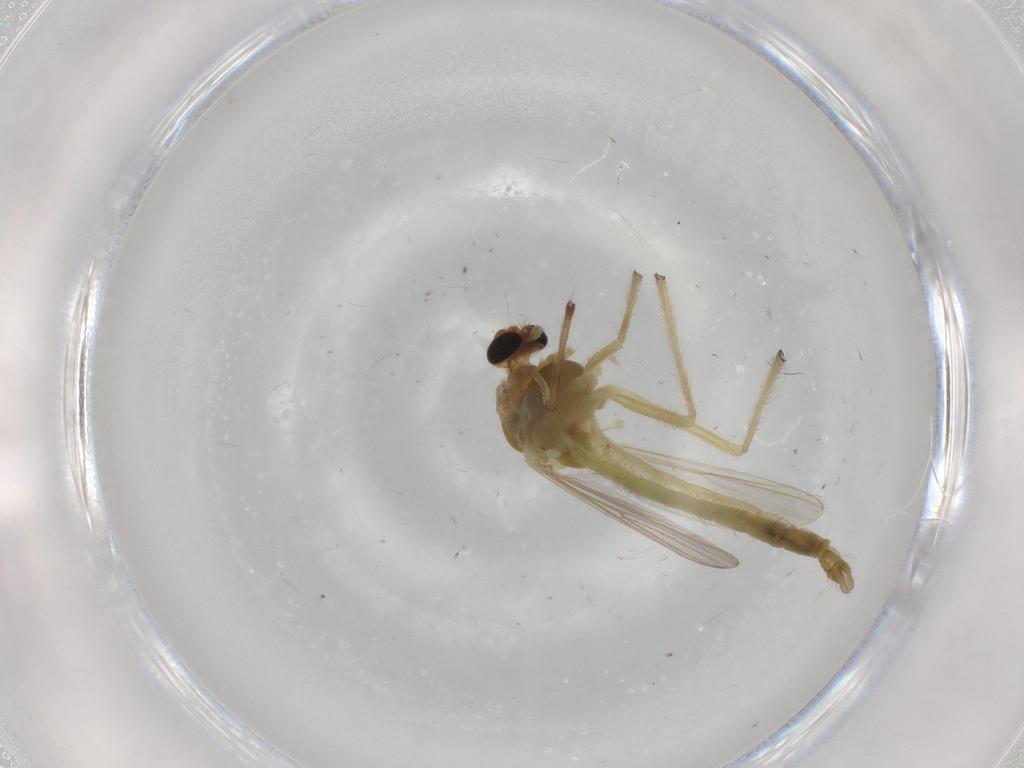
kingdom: Animalia
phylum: Arthropoda
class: Insecta
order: Diptera
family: Chironomidae
